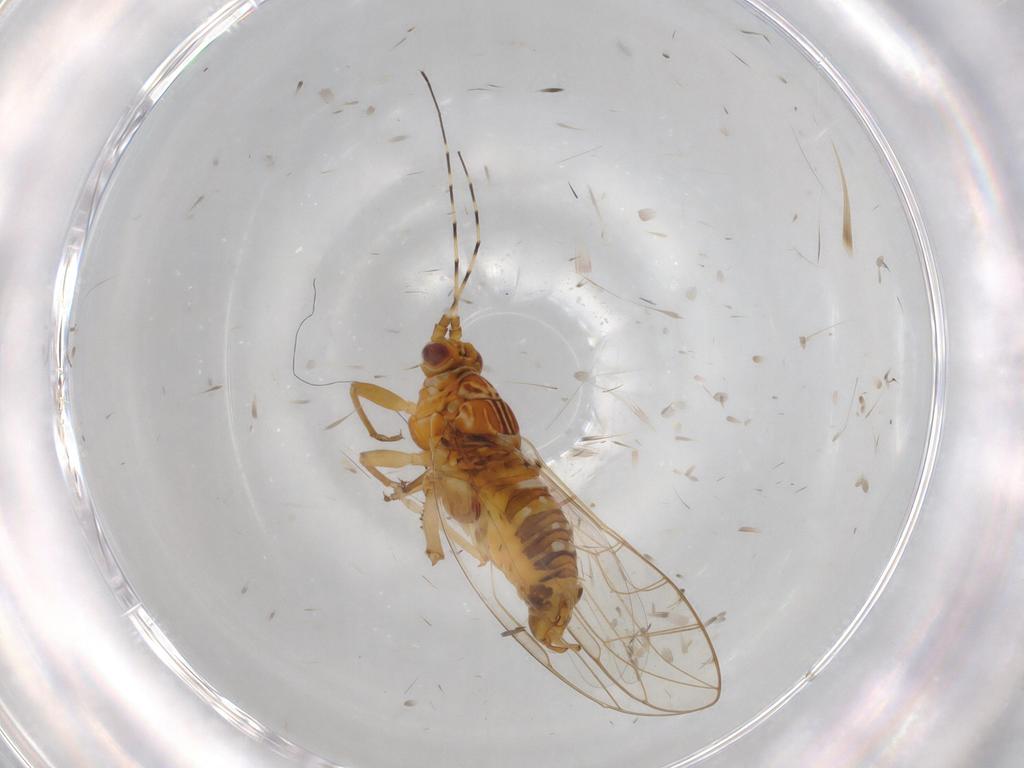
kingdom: Animalia
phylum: Arthropoda
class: Insecta
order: Hemiptera
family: Carsidaridae
